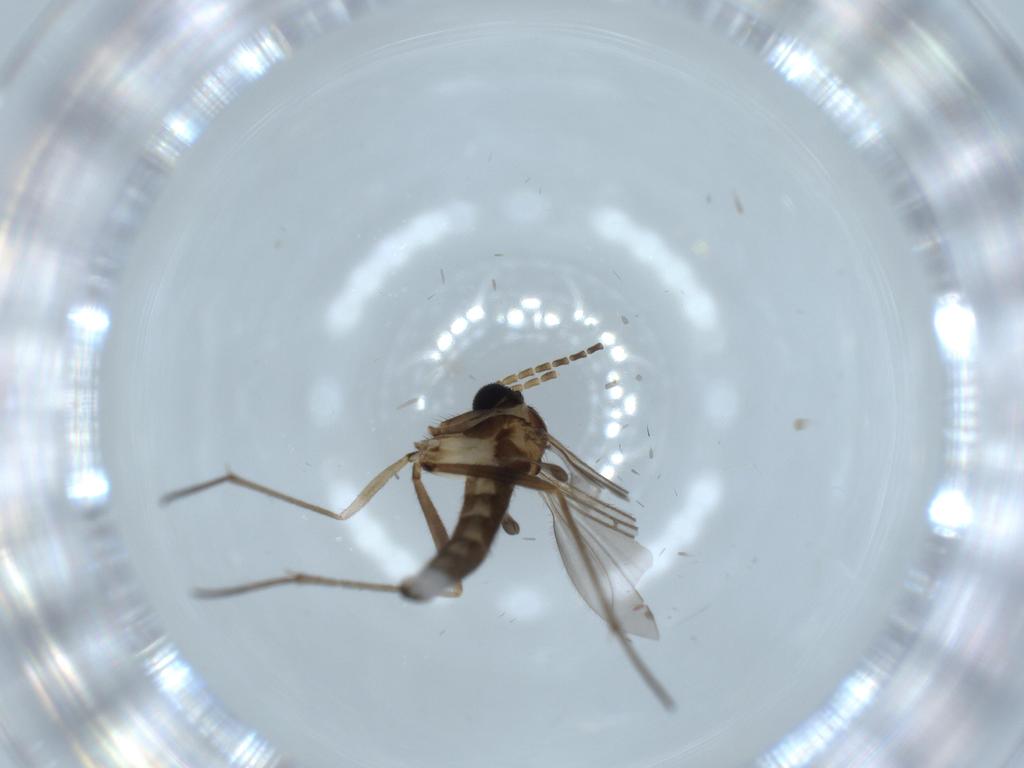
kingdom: Animalia
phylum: Arthropoda
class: Insecta
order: Diptera
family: Sciaridae
